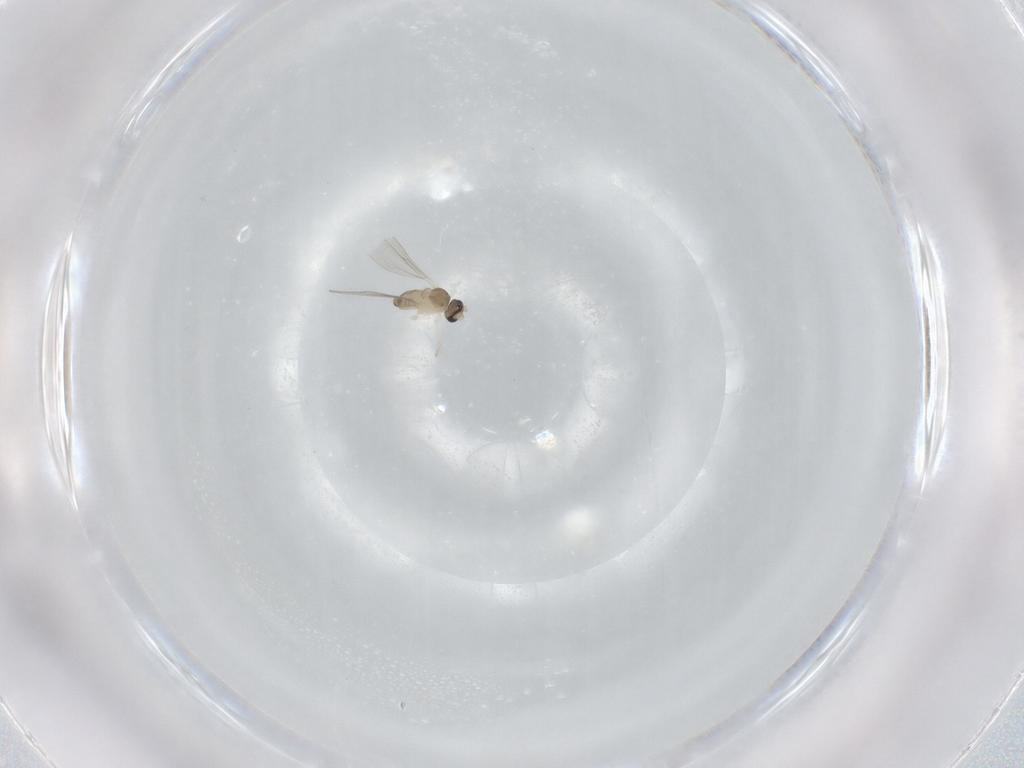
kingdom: Animalia
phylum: Arthropoda
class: Insecta
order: Diptera
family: Cecidomyiidae
